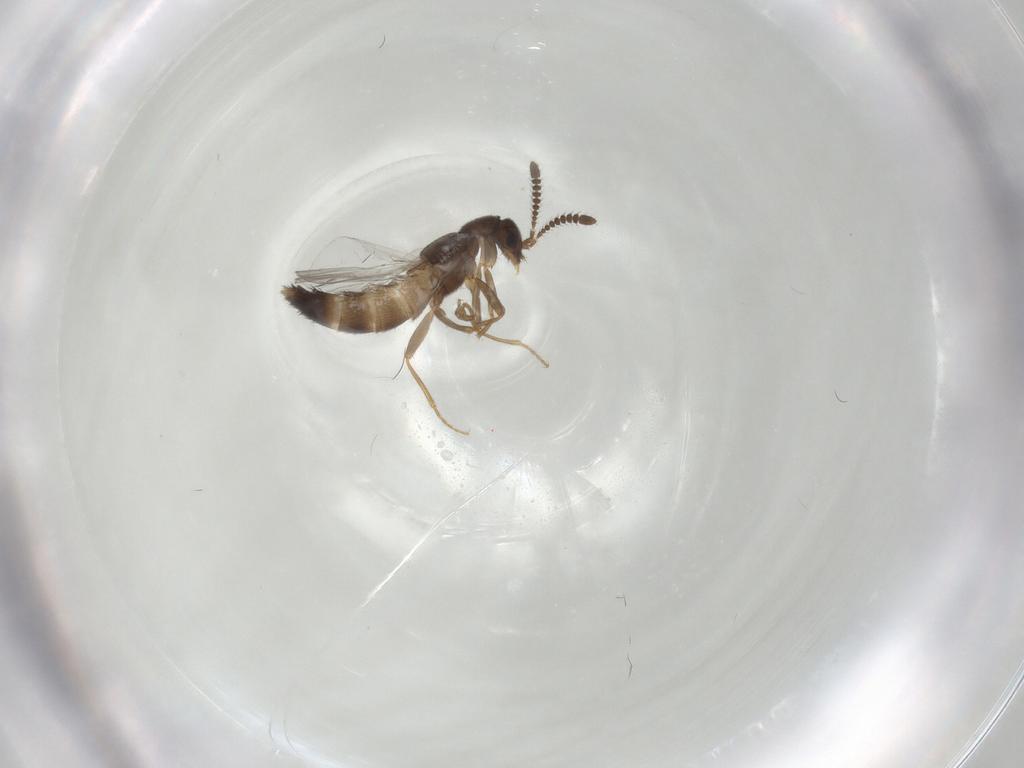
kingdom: Animalia
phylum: Arthropoda
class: Insecta
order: Coleoptera
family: Staphylinidae
